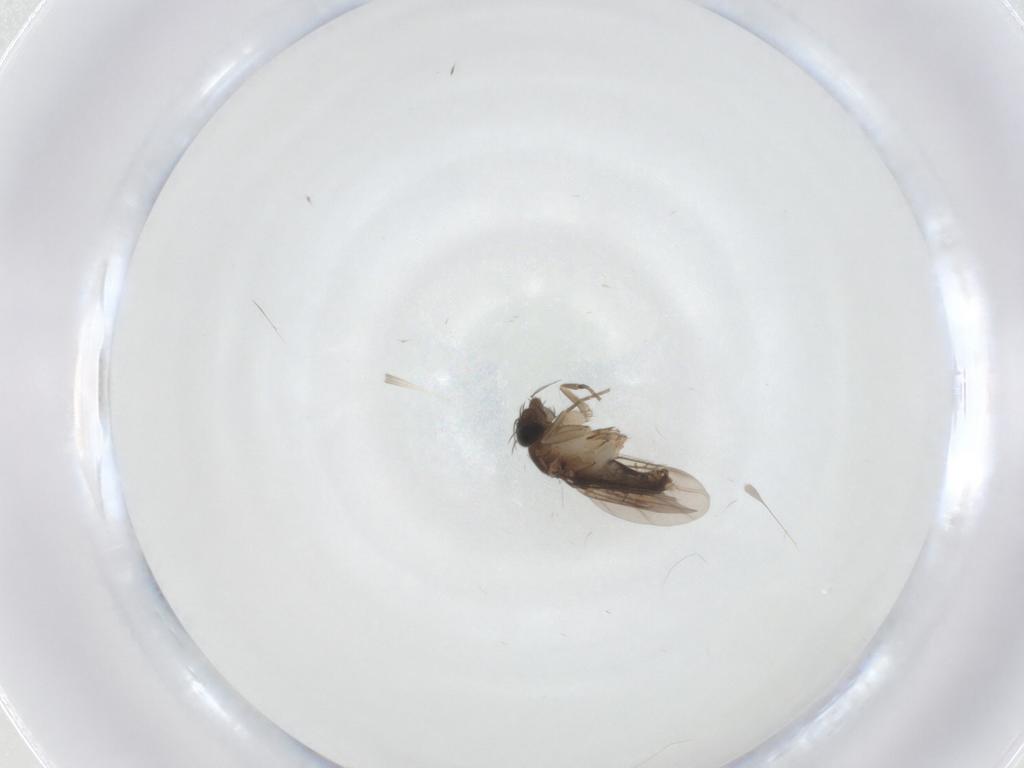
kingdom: Animalia
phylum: Arthropoda
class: Insecta
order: Diptera
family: Phoridae
